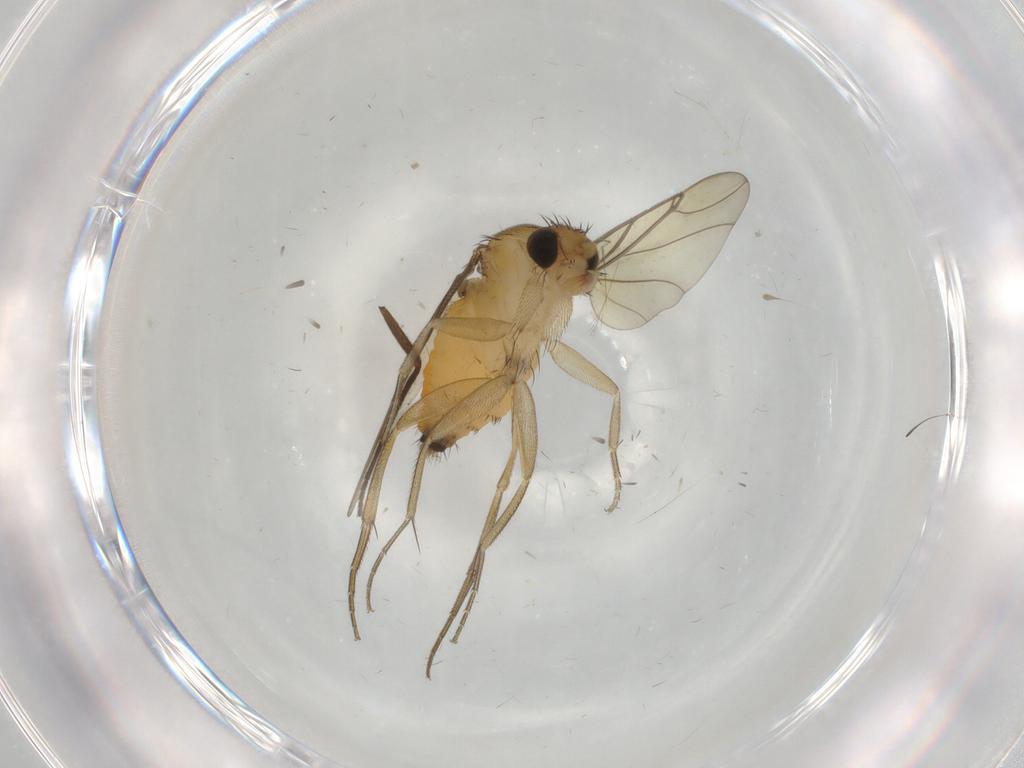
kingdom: Animalia
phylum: Arthropoda
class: Insecta
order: Diptera
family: Phoridae
